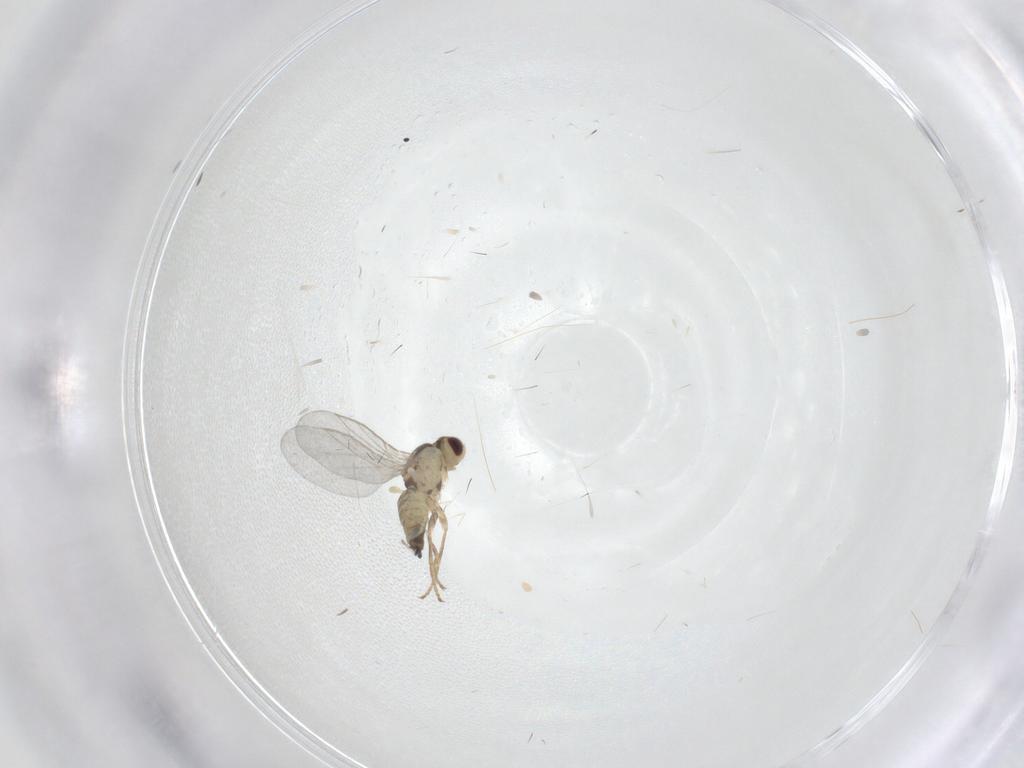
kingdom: Animalia
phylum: Arthropoda
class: Insecta
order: Diptera
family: Agromyzidae
